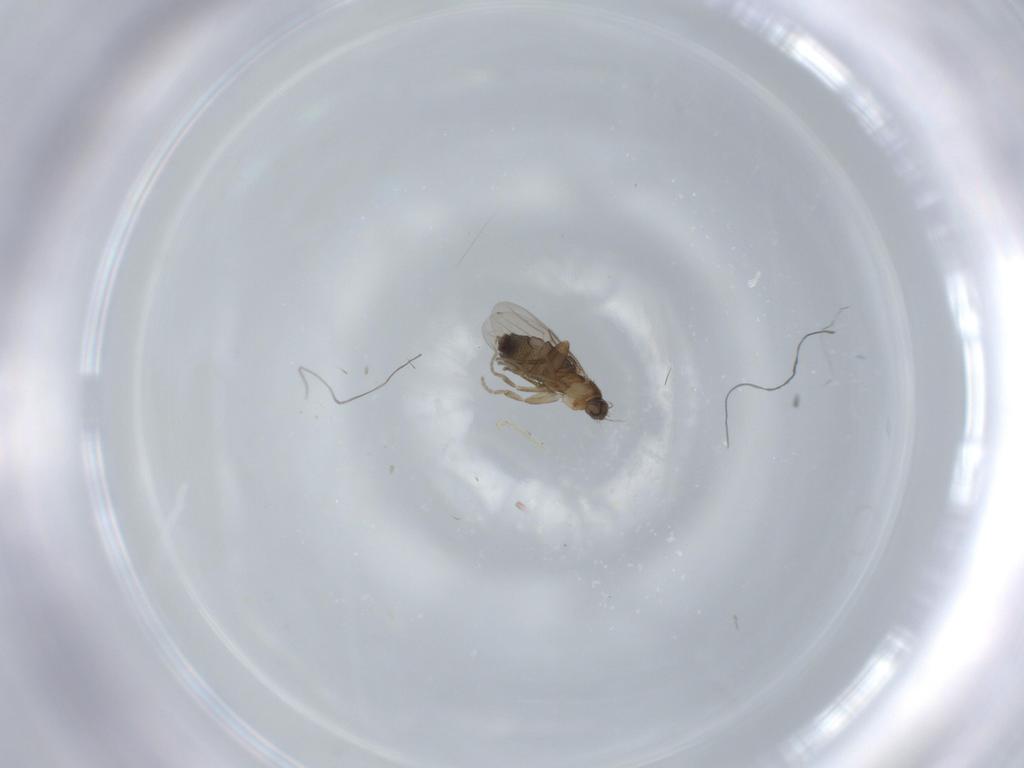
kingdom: Animalia
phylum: Arthropoda
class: Insecta
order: Diptera
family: Phoridae
